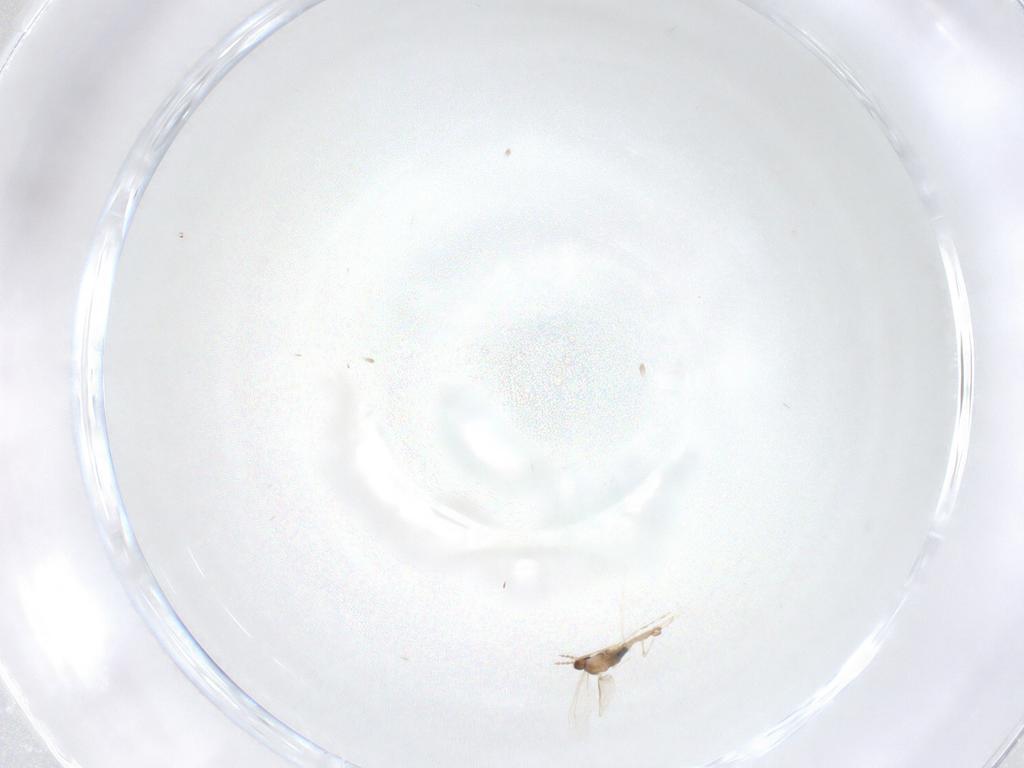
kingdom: Animalia
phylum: Arthropoda
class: Insecta
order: Diptera
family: Cecidomyiidae
